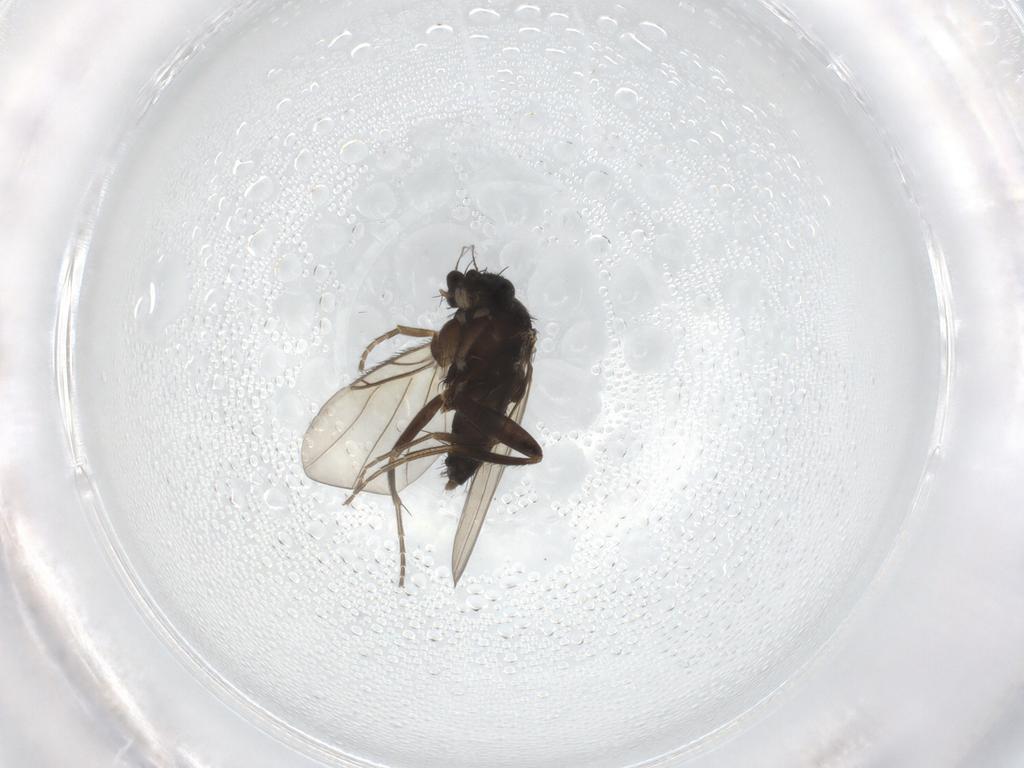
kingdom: Animalia
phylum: Arthropoda
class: Insecta
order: Diptera
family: Phoridae
